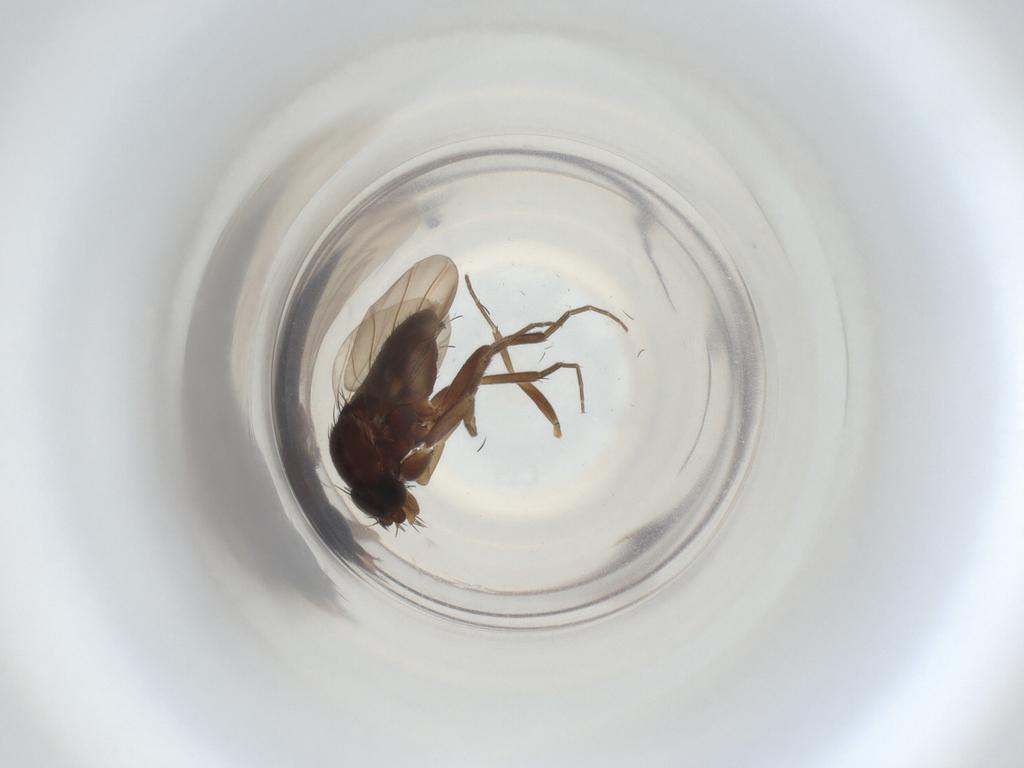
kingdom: Animalia
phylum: Arthropoda
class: Insecta
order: Diptera
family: Phoridae
